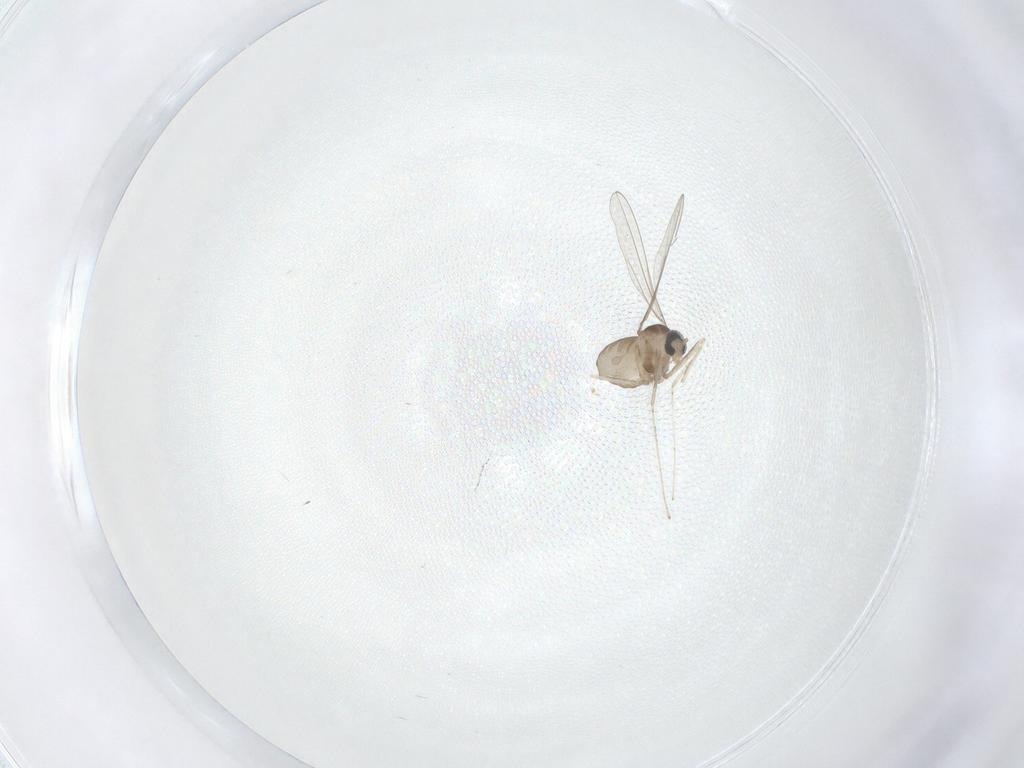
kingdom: Animalia
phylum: Arthropoda
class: Insecta
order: Diptera
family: Cecidomyiidae
